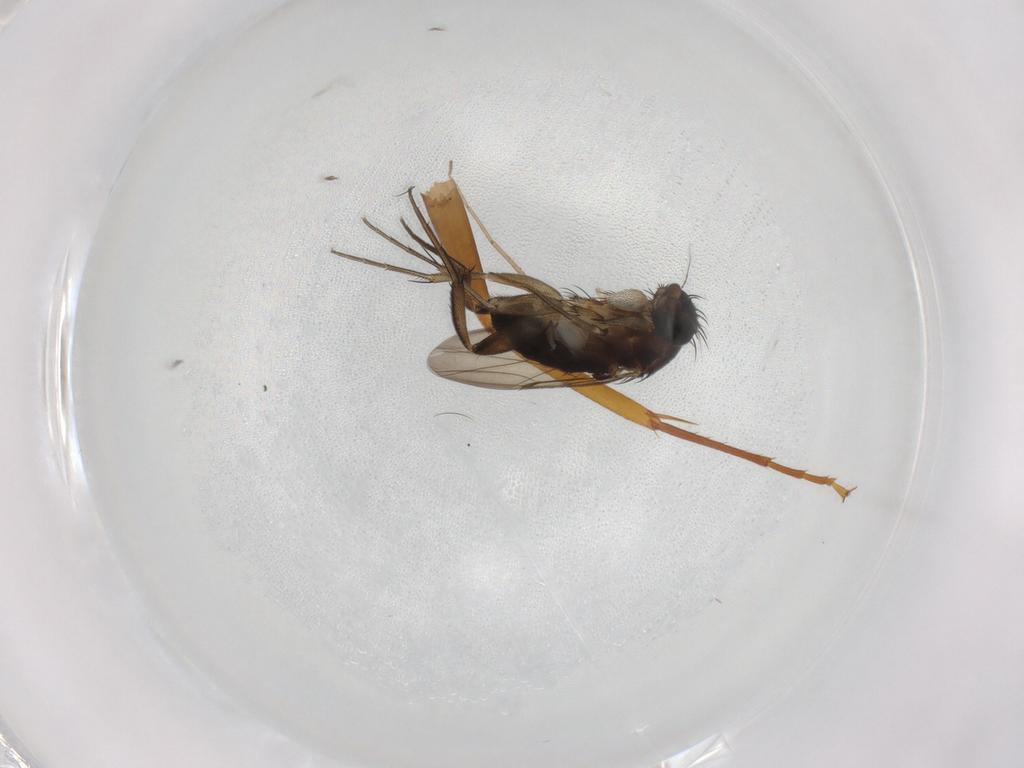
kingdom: Animalia
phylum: Arthropoda
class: Insecta
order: Diptera
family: Phoridae
